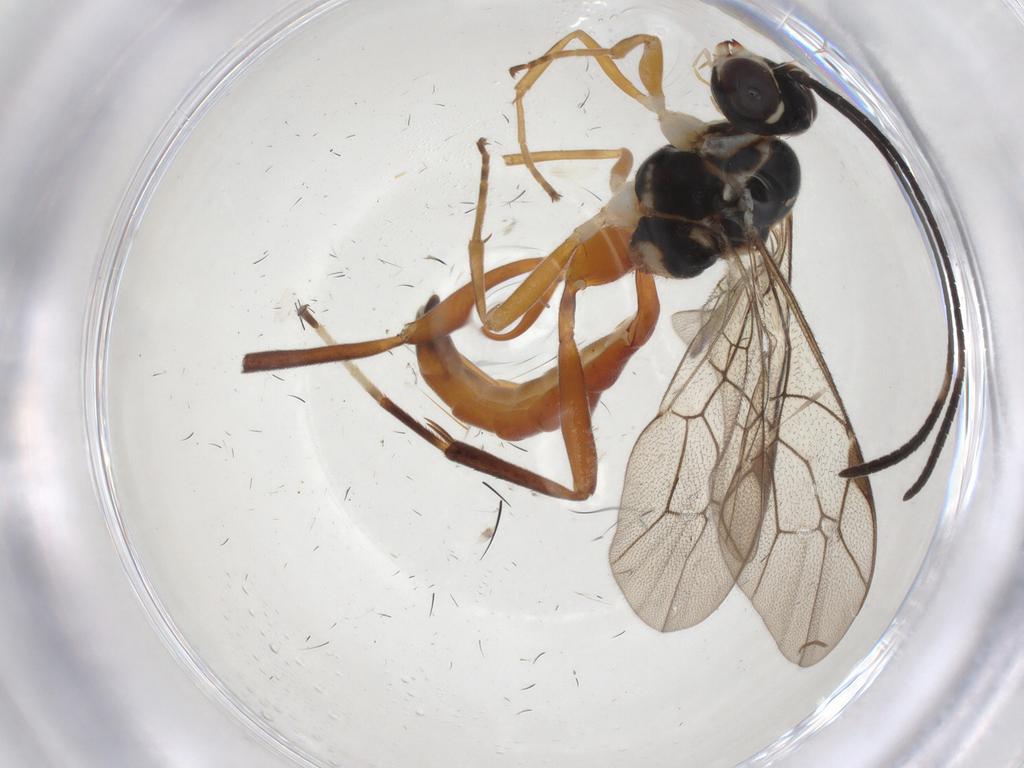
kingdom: Animalia
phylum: Arthropoda
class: Insecta
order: Hymenoptera
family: Ichneumonidae
